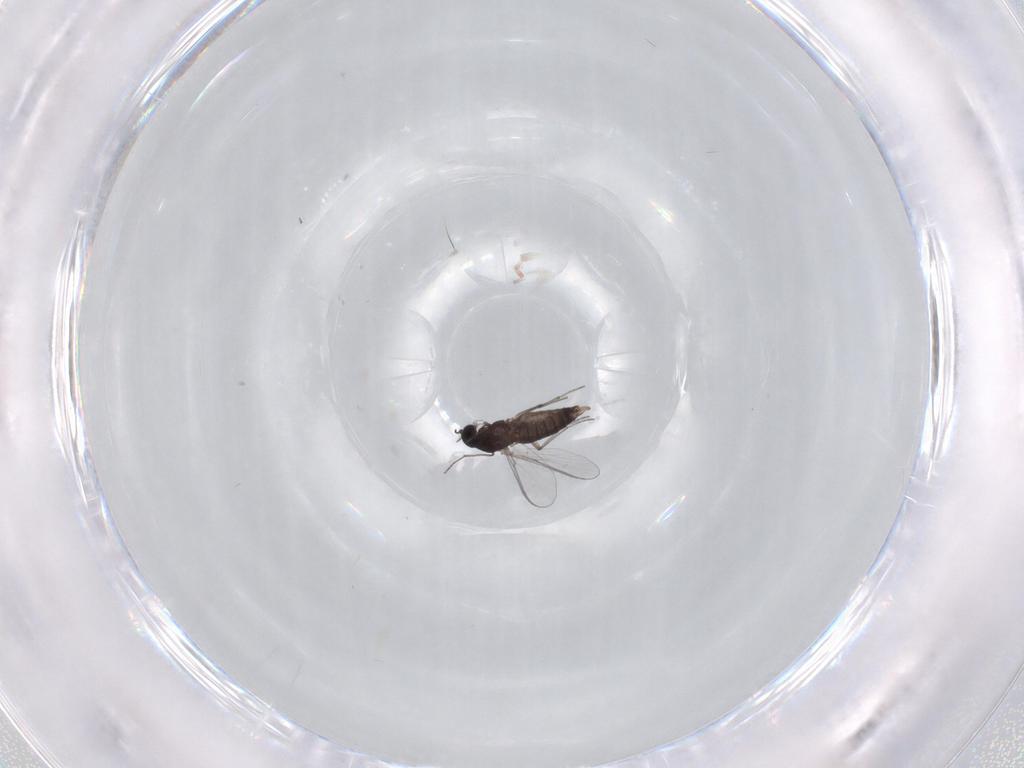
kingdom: Animalia
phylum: Arthropoda
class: Insecta
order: Diptera
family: Chironomidae
